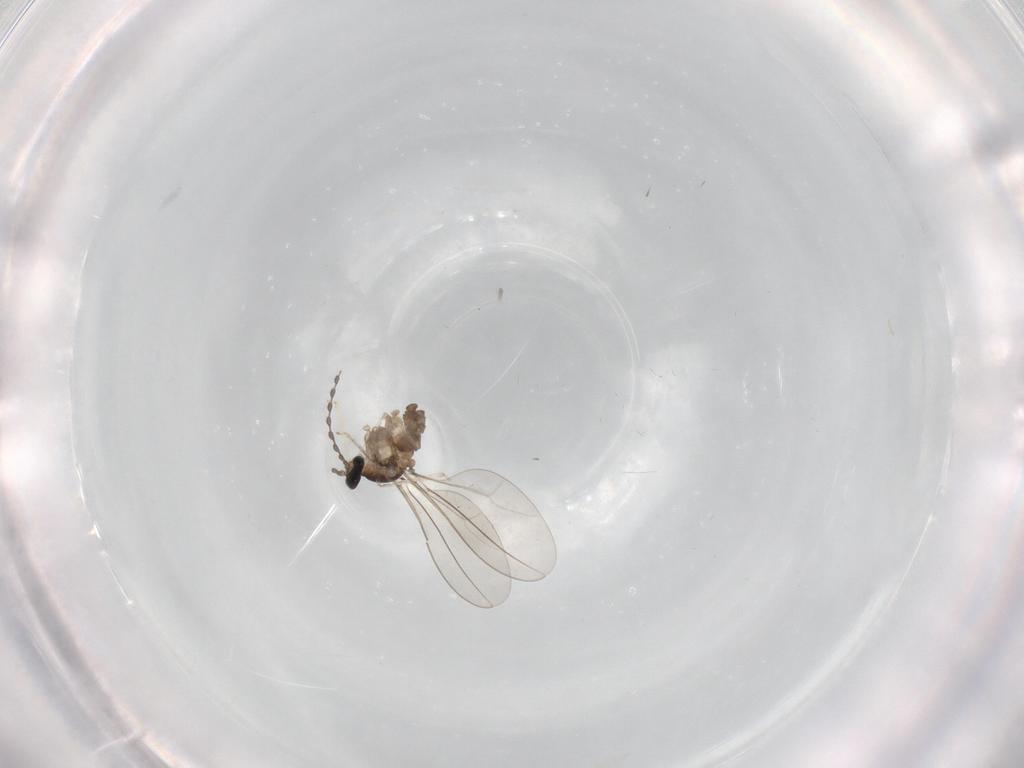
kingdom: Animalia
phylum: Arthropoda
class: Insecta
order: Diptera
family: Cecidomyiidae
